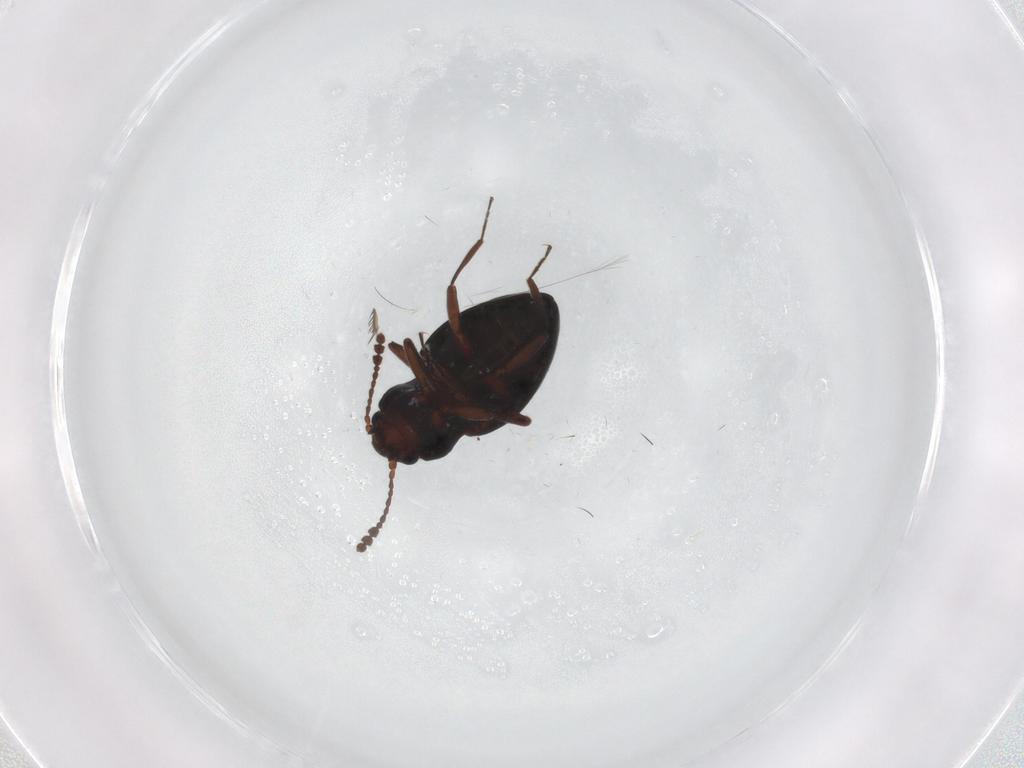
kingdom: Animalia
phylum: Arthropoda
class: Insecta
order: Coleoptera
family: Erotylidae
